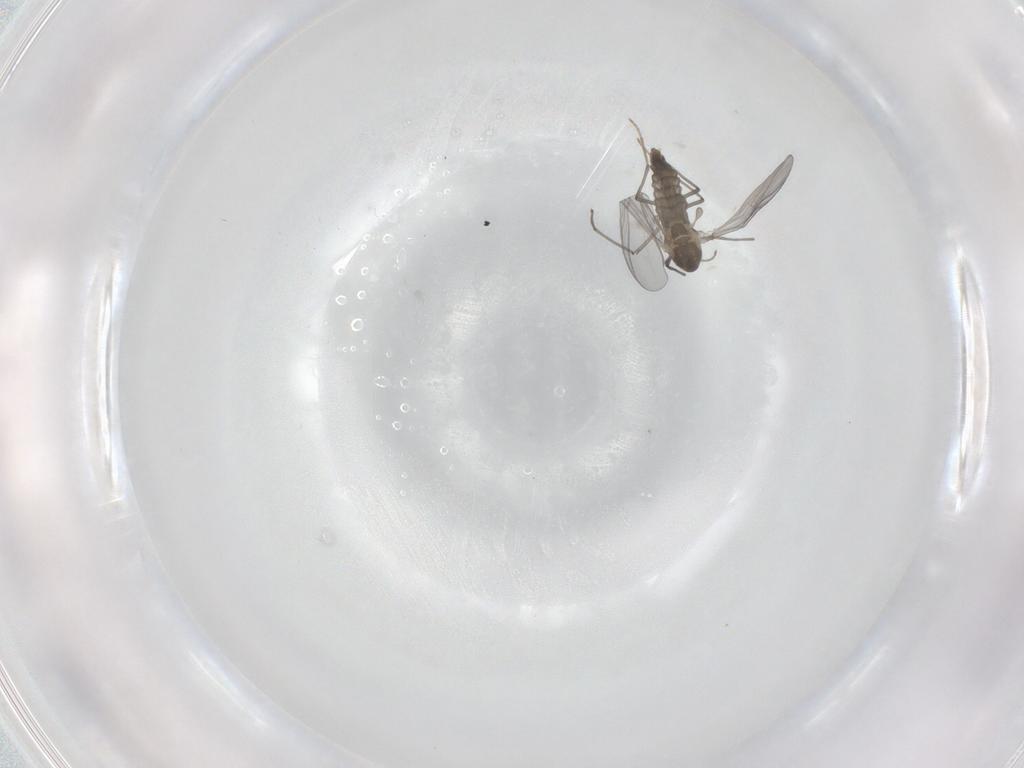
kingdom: Animalia
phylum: Arthropoda
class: Insecta
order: Diptera
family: Chironomidae
